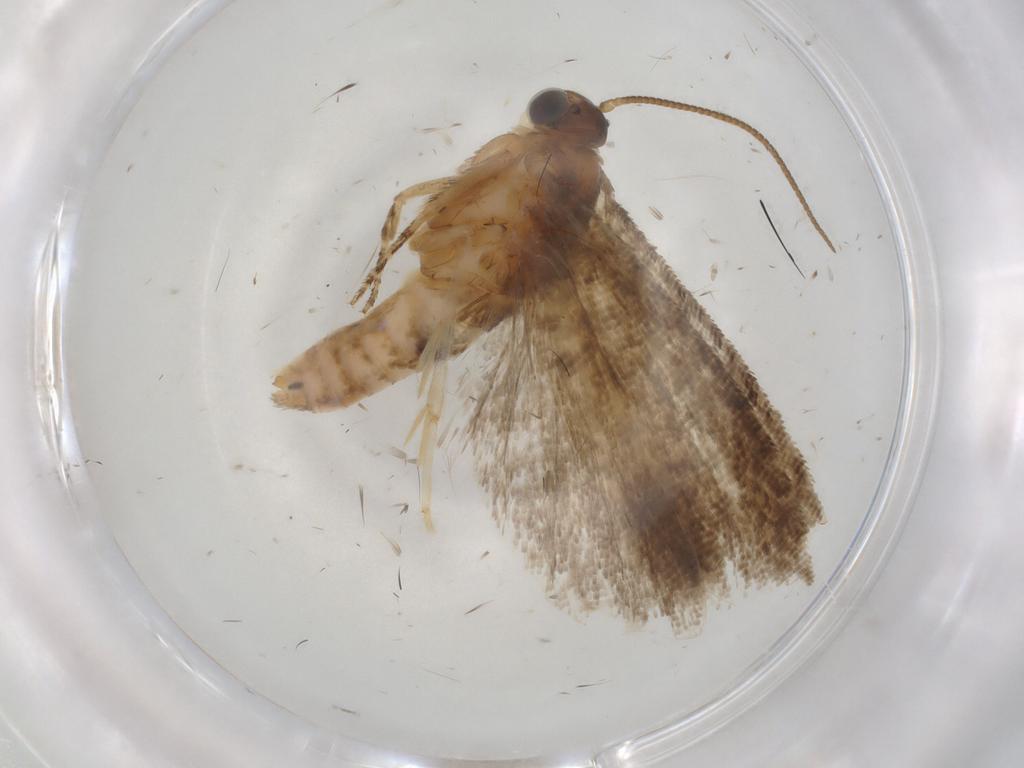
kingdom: Animalia
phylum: Arthropoda
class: Insecta
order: Lepidoptera
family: Tortricidae
